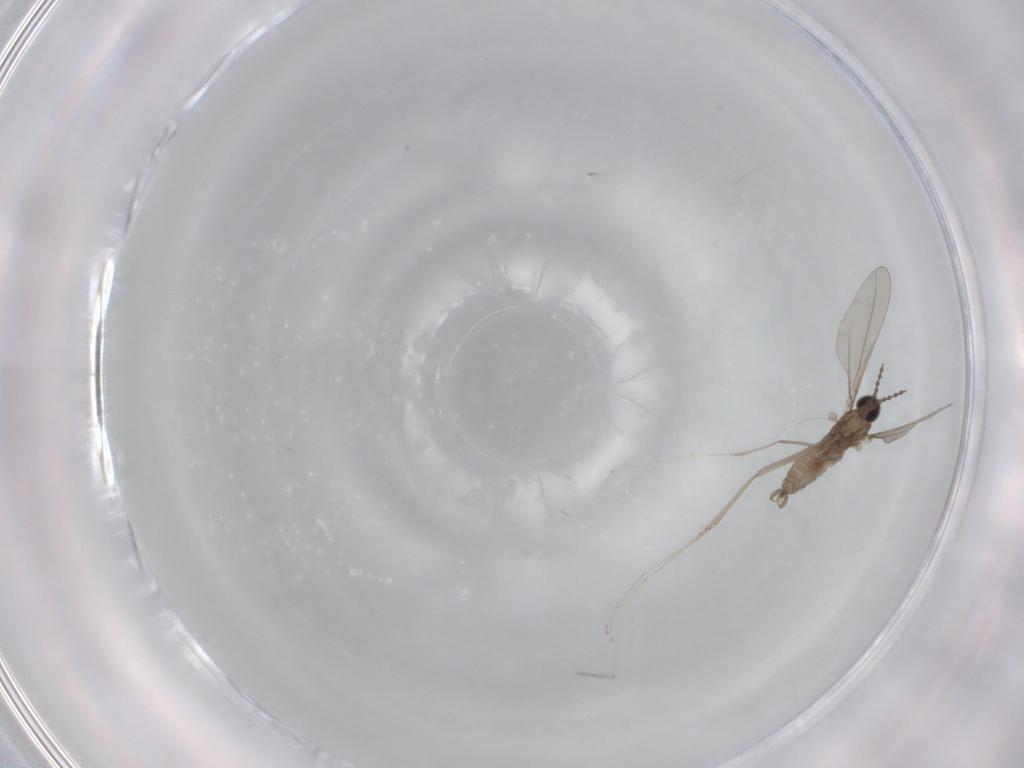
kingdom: Animalia
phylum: Arthropoda
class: Insecta
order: Diptera
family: Cecidomyiidae
